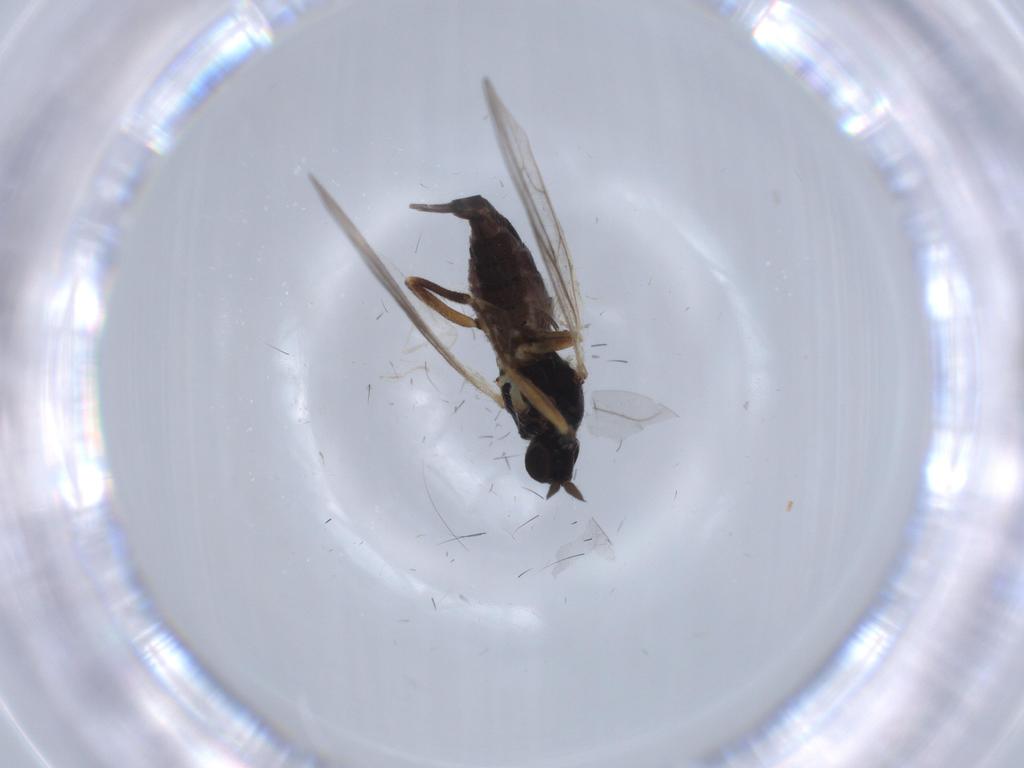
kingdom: Animalia
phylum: Arthropoda
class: Insecta
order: Diptera
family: Hybotidae
